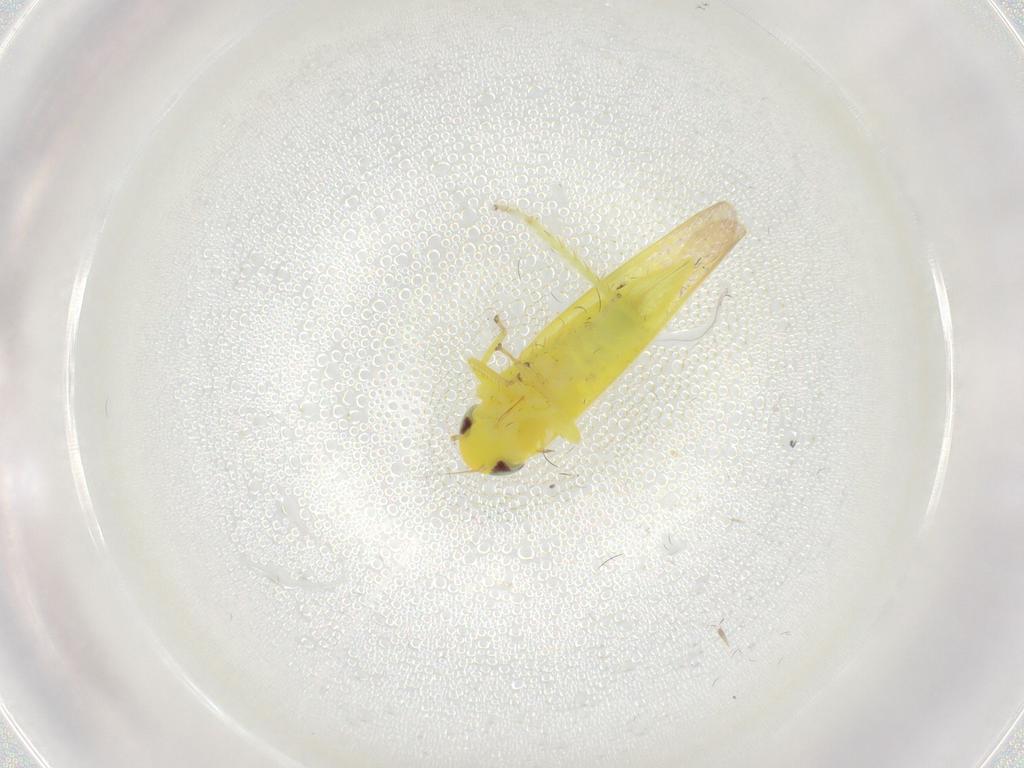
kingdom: Animalia
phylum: Arthropoda
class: Insecta
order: Hemiptera
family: Cicadellidae
